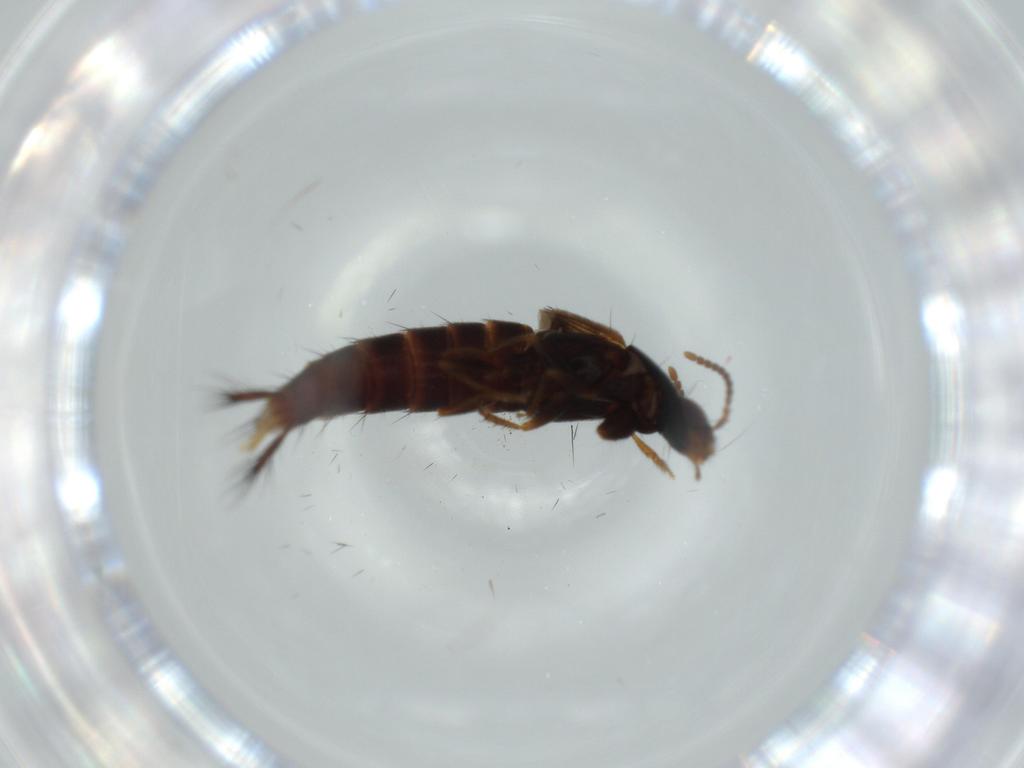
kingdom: Animalia
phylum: Arthropoda
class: Insecta
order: Coleoptera
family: Staphylinidae
